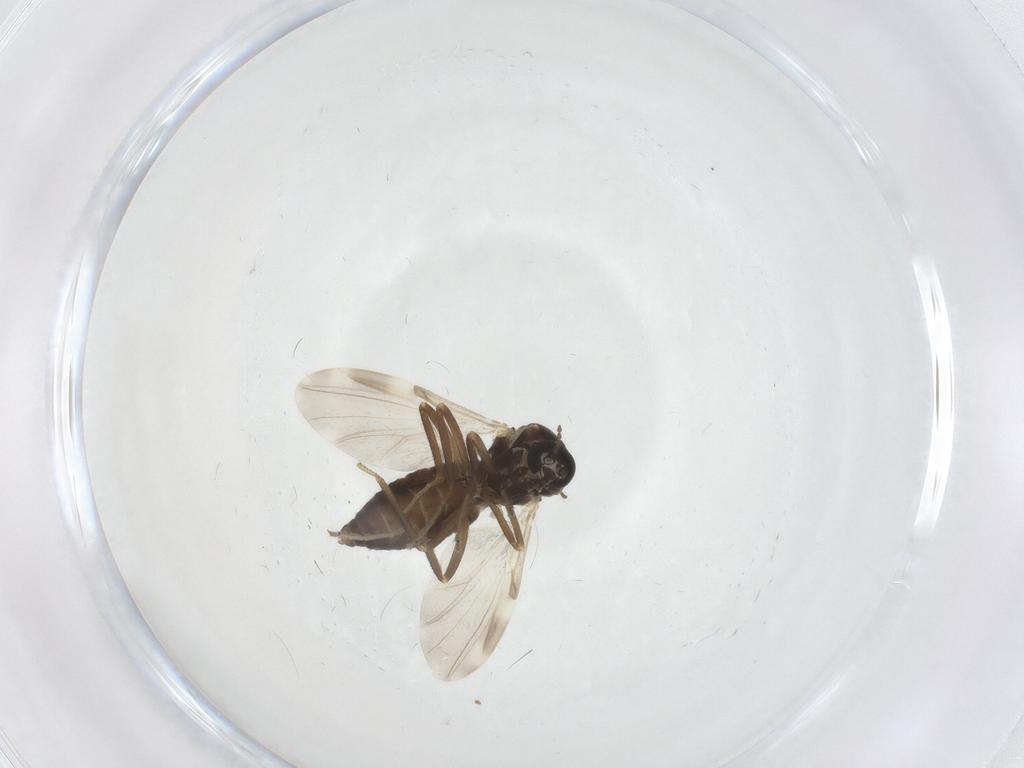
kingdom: Animalia
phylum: Arthropoda
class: Insecta
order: Diptera
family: Ceratopogonidae
